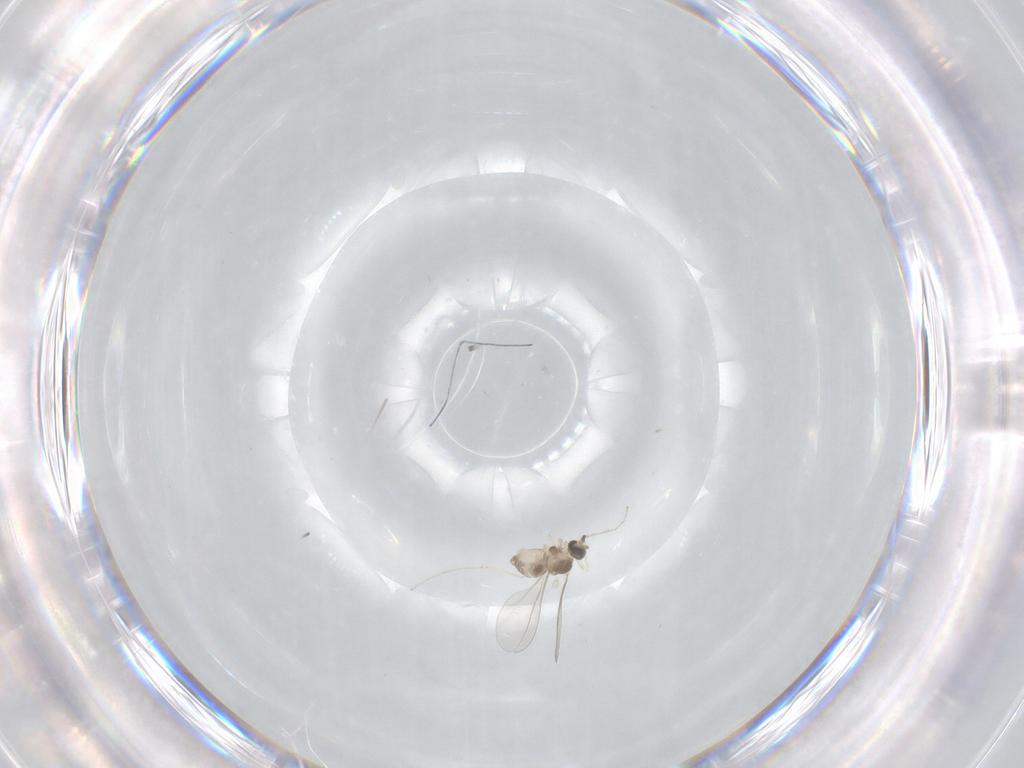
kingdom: Animalia
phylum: Arthropoda
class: Insecta
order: Diptera
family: Cecidomyiidae
